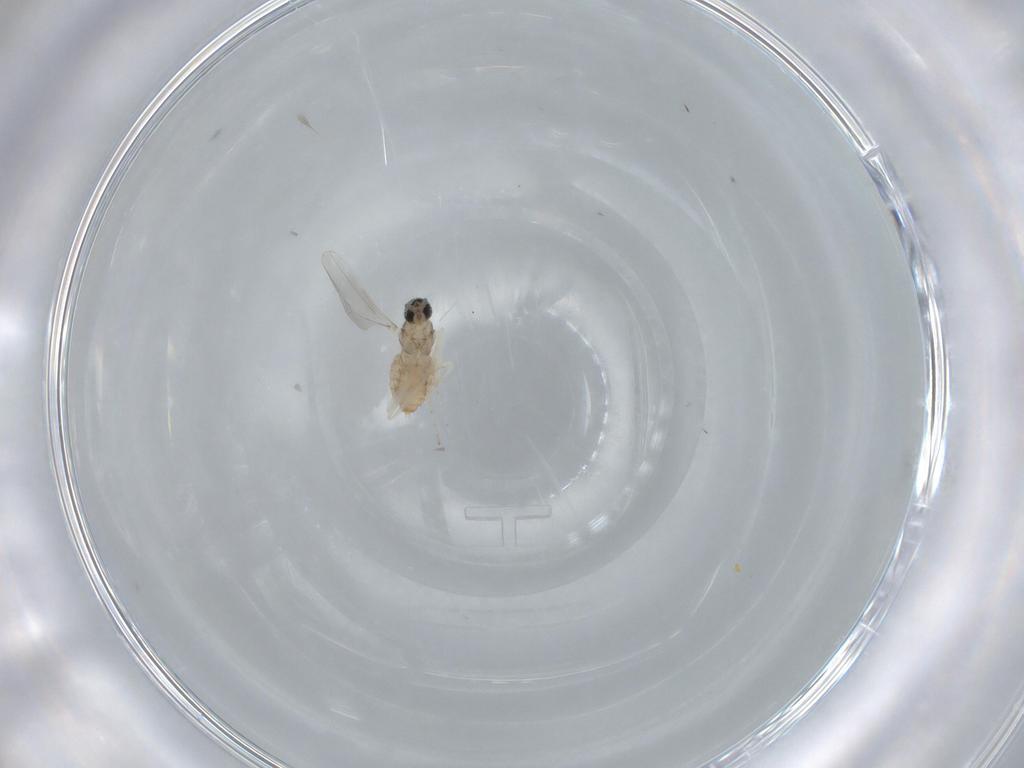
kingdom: Animalia
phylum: Arthropoda
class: Insecta
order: Diptera
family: Cecidomyiidae
